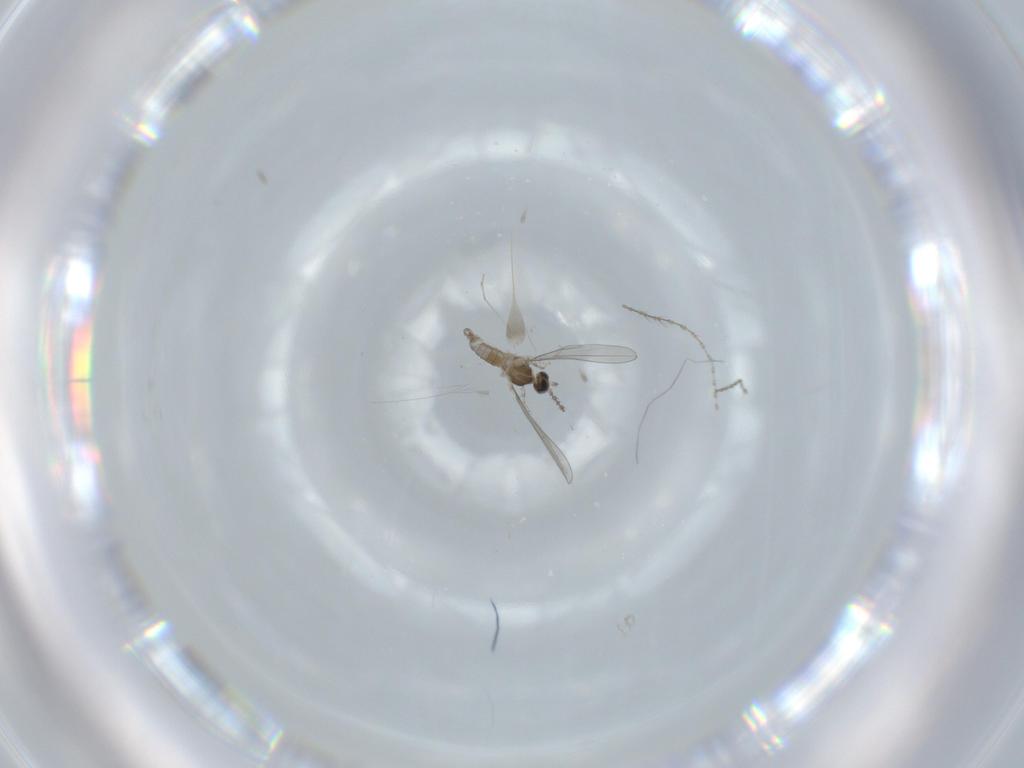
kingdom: Animalia
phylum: Arthropoda
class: Insecta
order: Diptera
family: Cecidomyiidae
